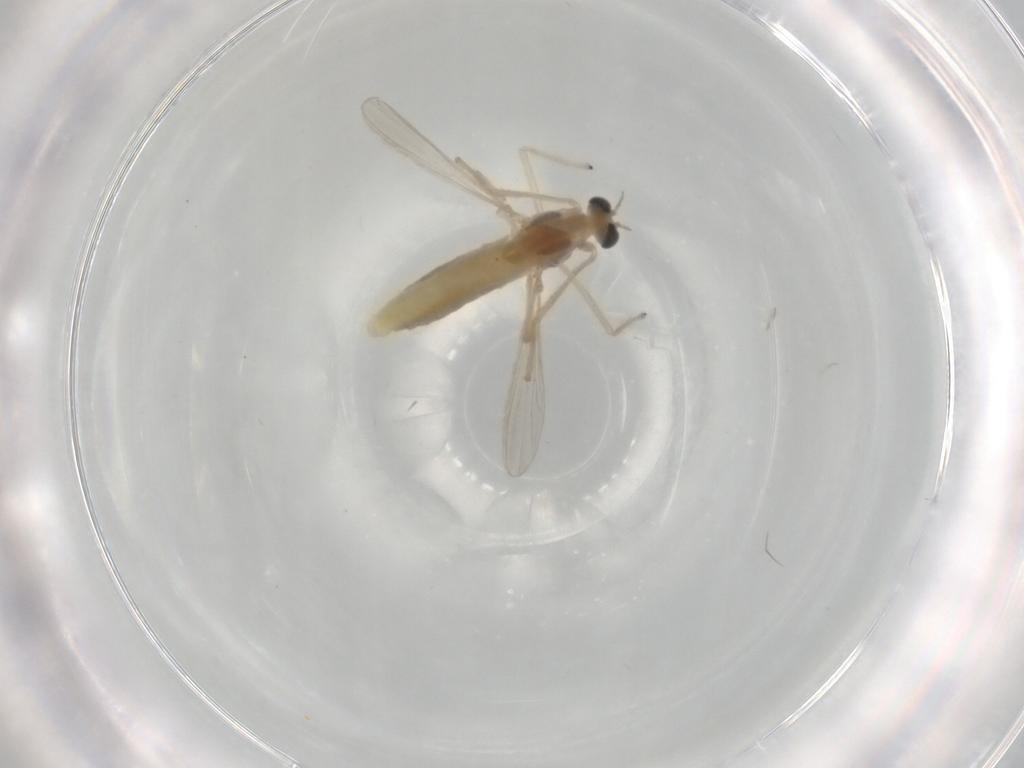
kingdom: Animalia
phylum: Arthropoda
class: Insecta
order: Diptera
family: Chironomidae
